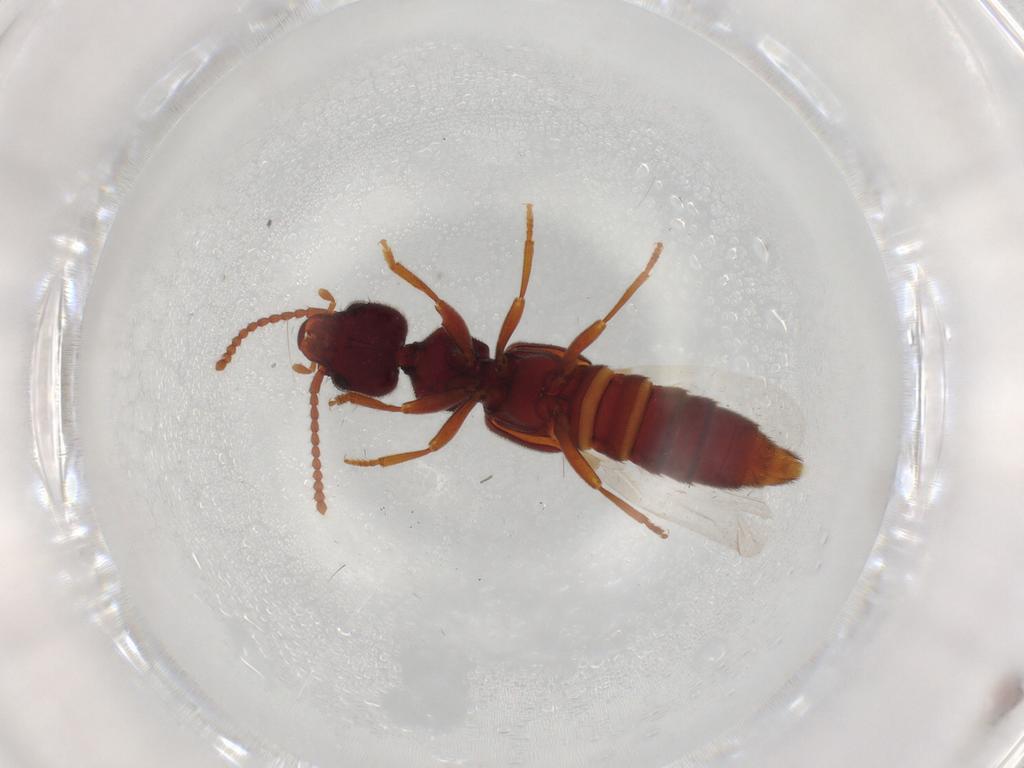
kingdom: Animalia
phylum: Arthropoda
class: Insecta
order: Coleoptera
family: Staphylinidae
